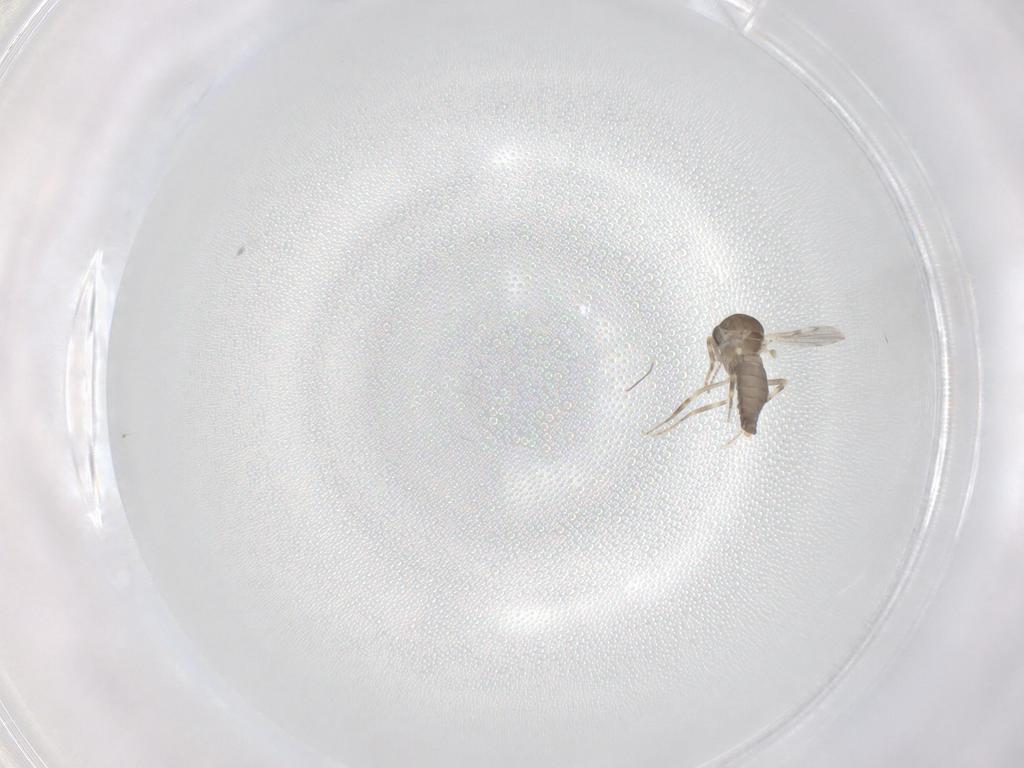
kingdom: Animalia
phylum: Arthropoda
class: Insecta
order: Diptera
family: Ceratopogonidae
